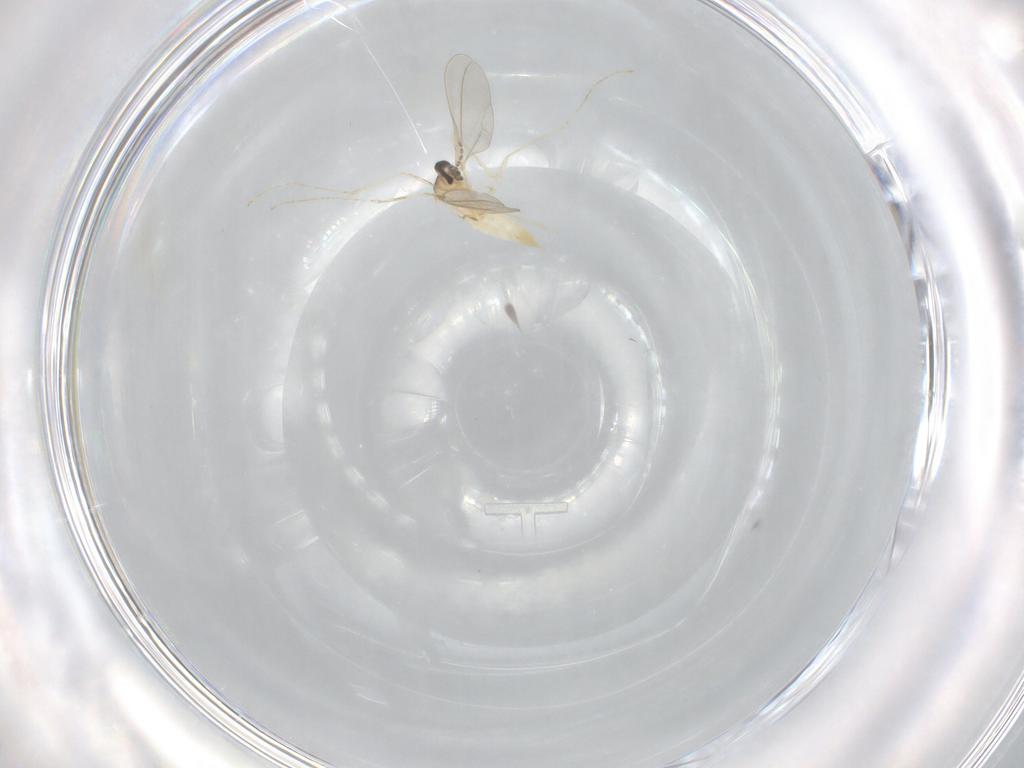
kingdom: Animalia
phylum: Arthropoda
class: Insecta
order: Diptera
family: Cecidomyiidae
